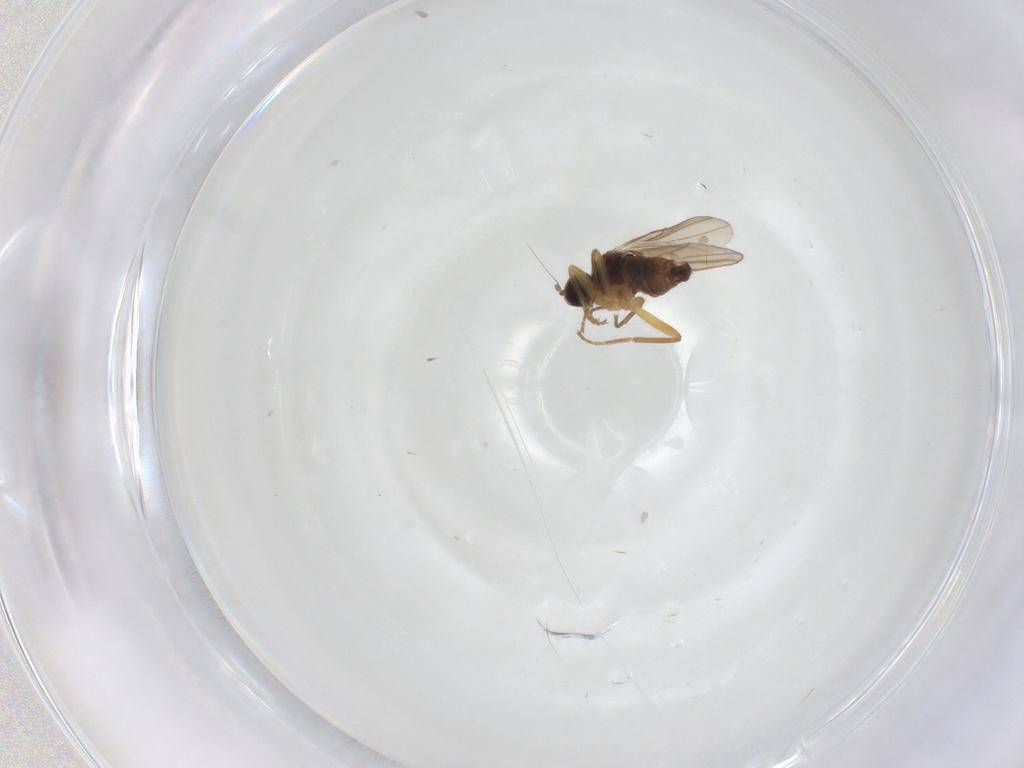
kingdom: Animalia
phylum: Arthropoda
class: Insecta
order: Diptera
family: Hybotidae
